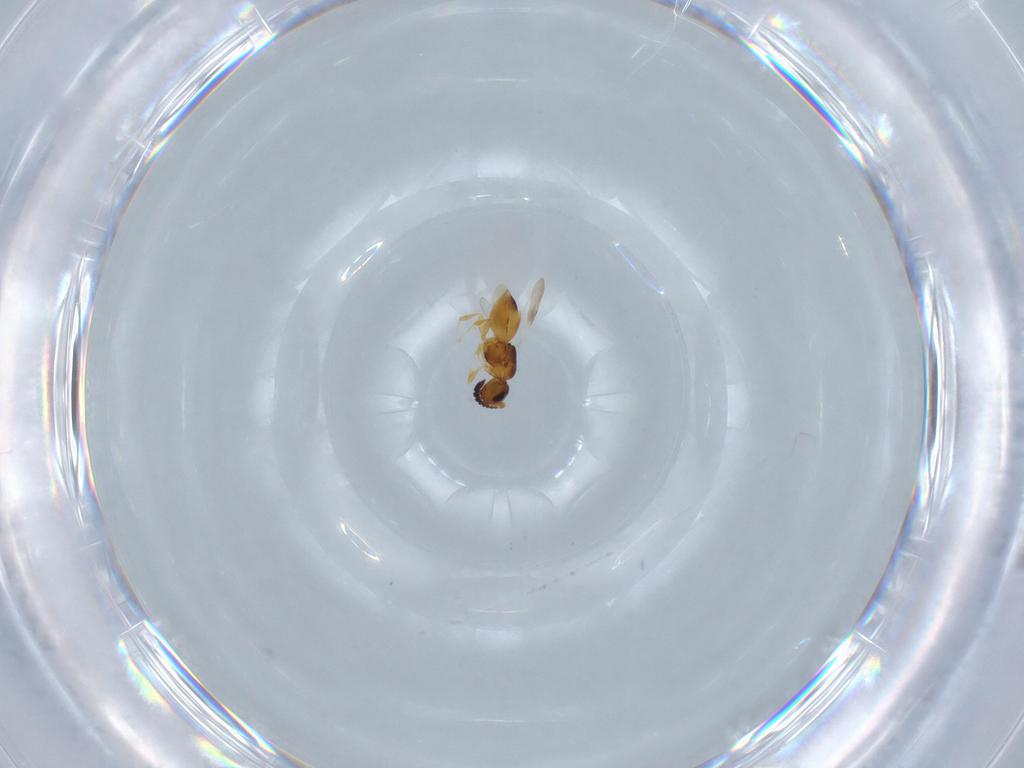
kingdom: Animalia
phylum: Arthropoda
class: Insecta
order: Hymenoptera
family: Ceraphronidae
